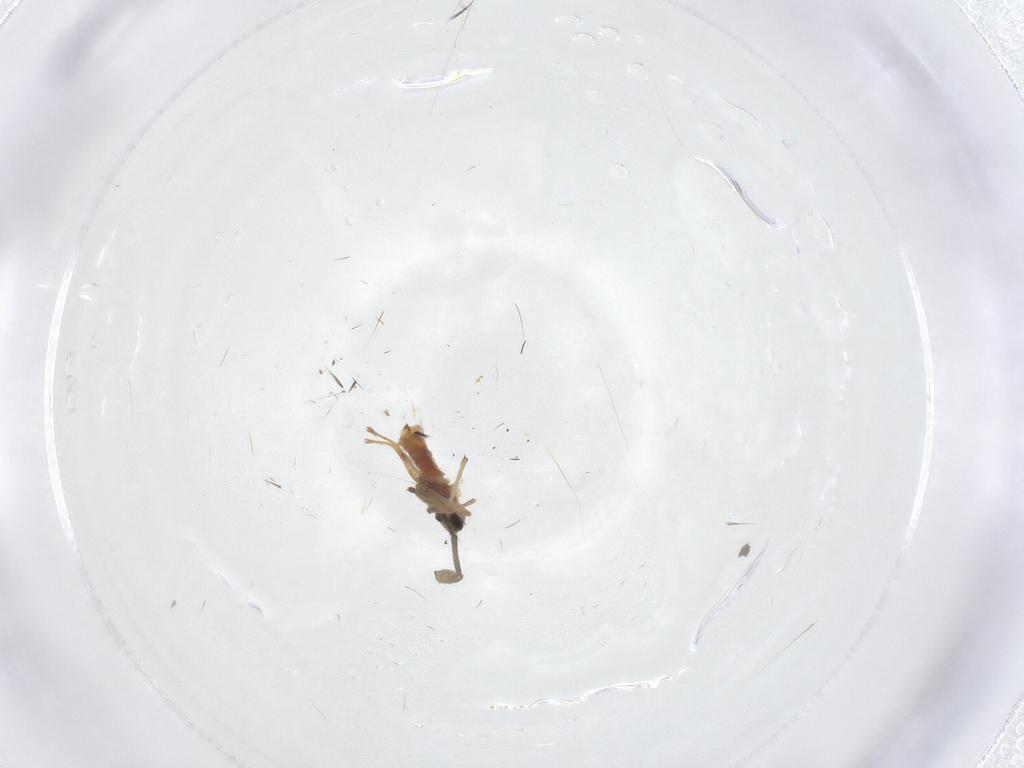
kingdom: Animalia
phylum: Arthropoda
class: Insecta
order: Diptera
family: Chironomidae
